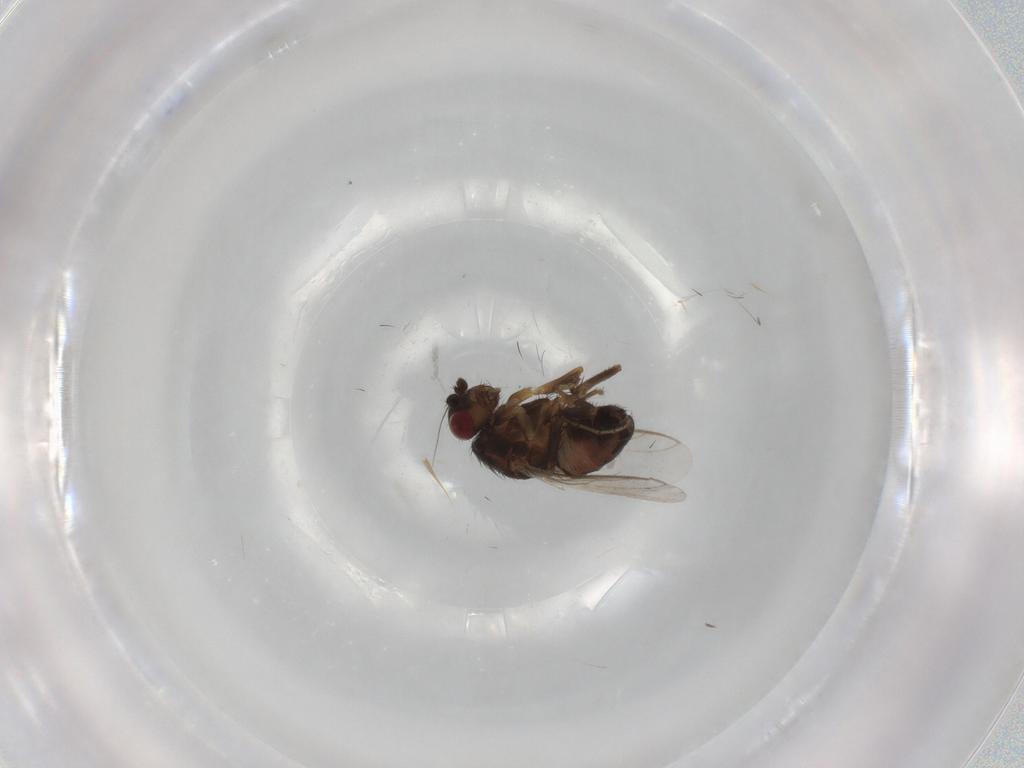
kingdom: Animalia
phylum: Arthropoda
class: Insecta
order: Diptera
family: Sphaeroceridae
